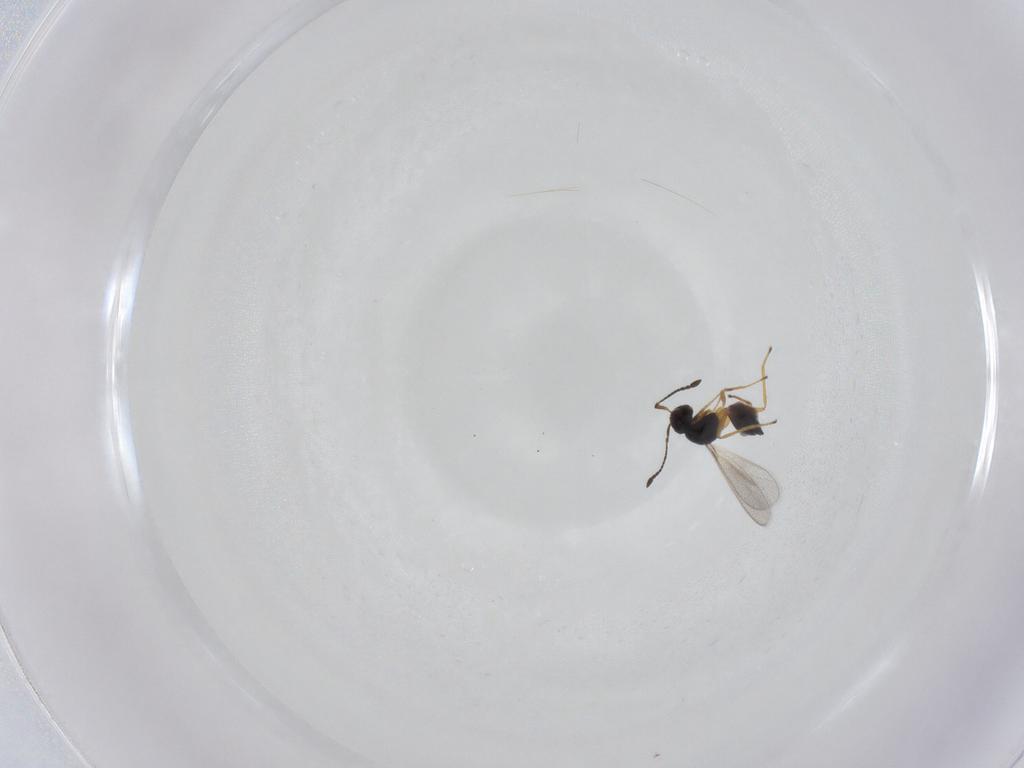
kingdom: Animalia
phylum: Arthropoda
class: Insecta
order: Hymenoptera
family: Mymaridae
